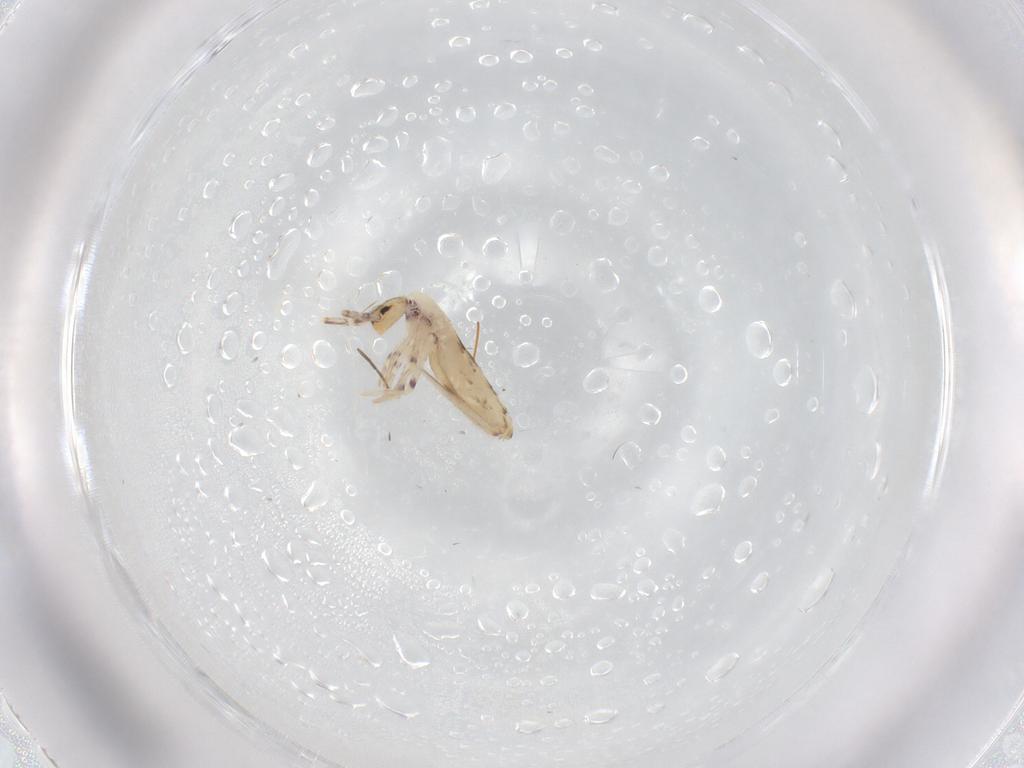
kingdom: Animalia
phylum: Arthropoda
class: Collembola
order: Entomobryomorpha
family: Entomobryidae
